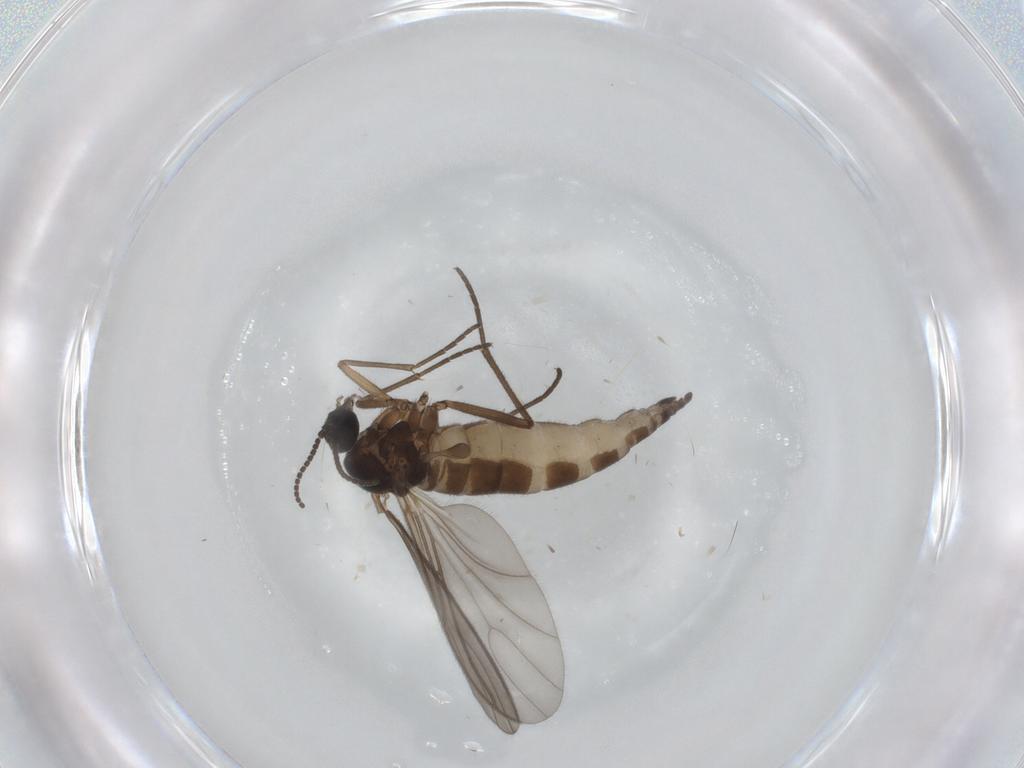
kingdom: Animalia
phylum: Arthropoda
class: Insecta
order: Diptera
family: Sciaridae
